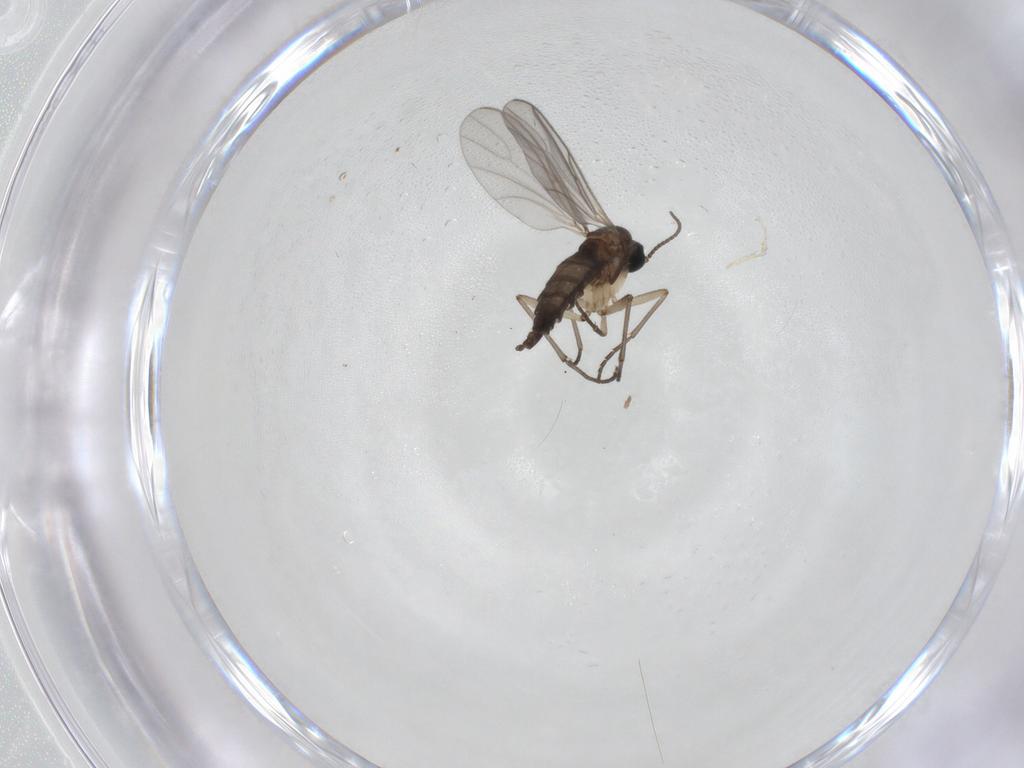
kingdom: Animalia
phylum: Arthropoda
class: Insecta
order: Diptera
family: Sciaridae
